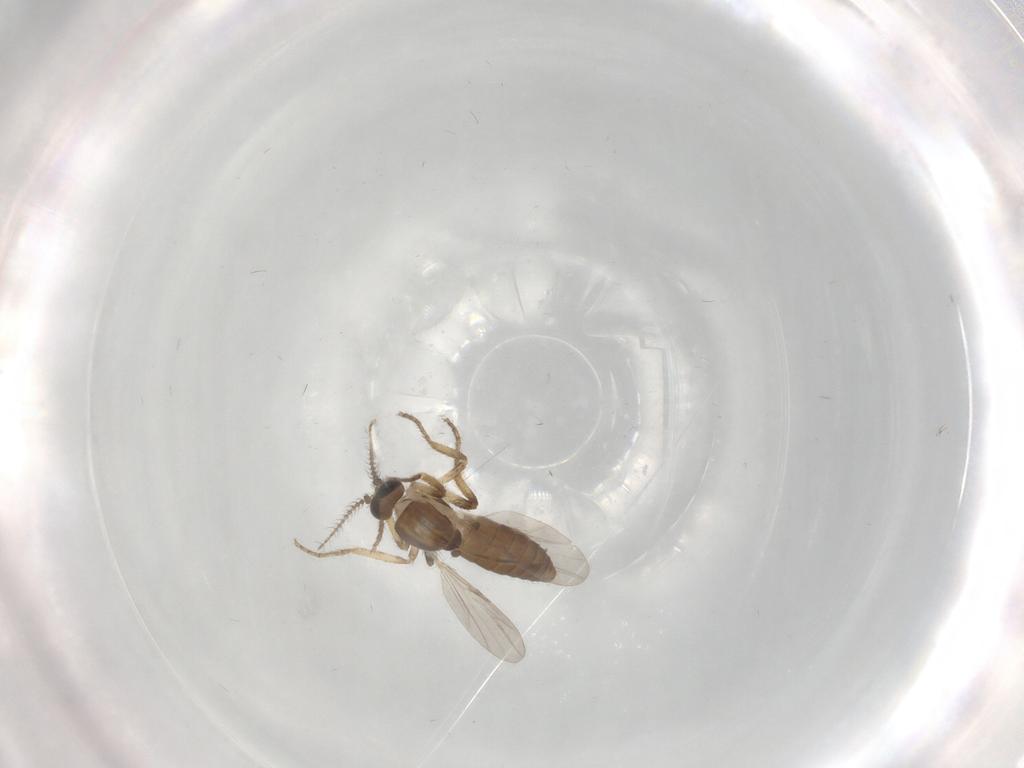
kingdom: Animalia
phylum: Arthropoda
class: Insecta
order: Diptera
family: Ceratopogonidae
